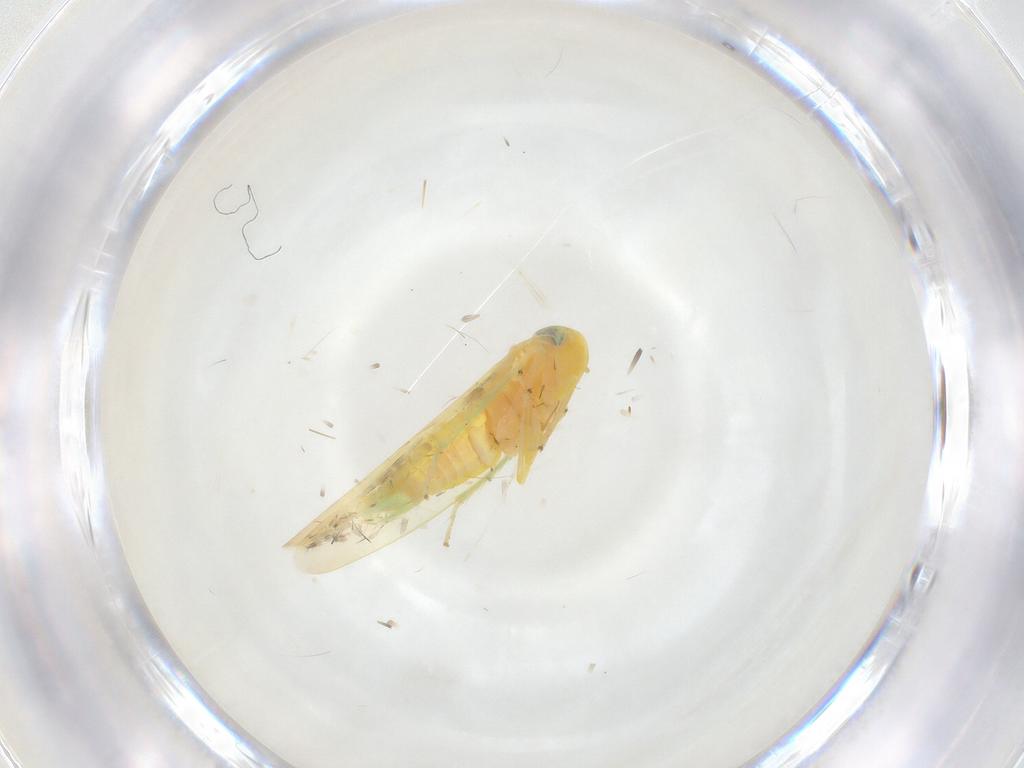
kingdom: Animalia
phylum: Arthropoda
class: Insecta
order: Hemiptera
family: Cicadellidae
